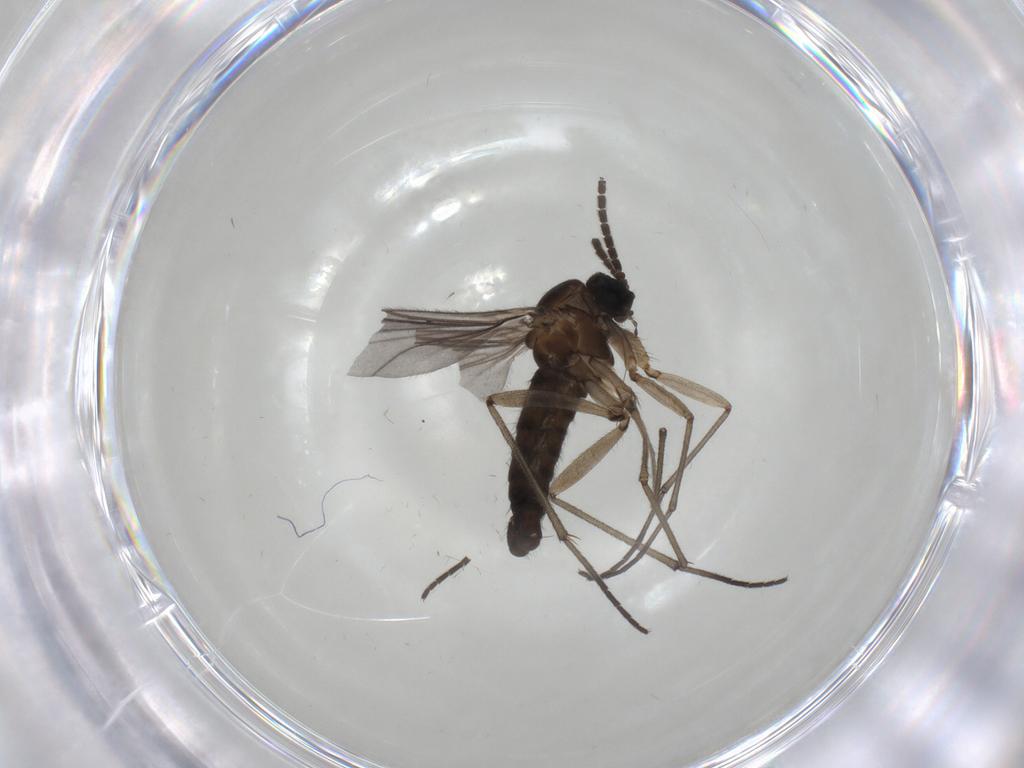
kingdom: Animalia
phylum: Arthropoda
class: Insecta
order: Diptera
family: Sciaridae
